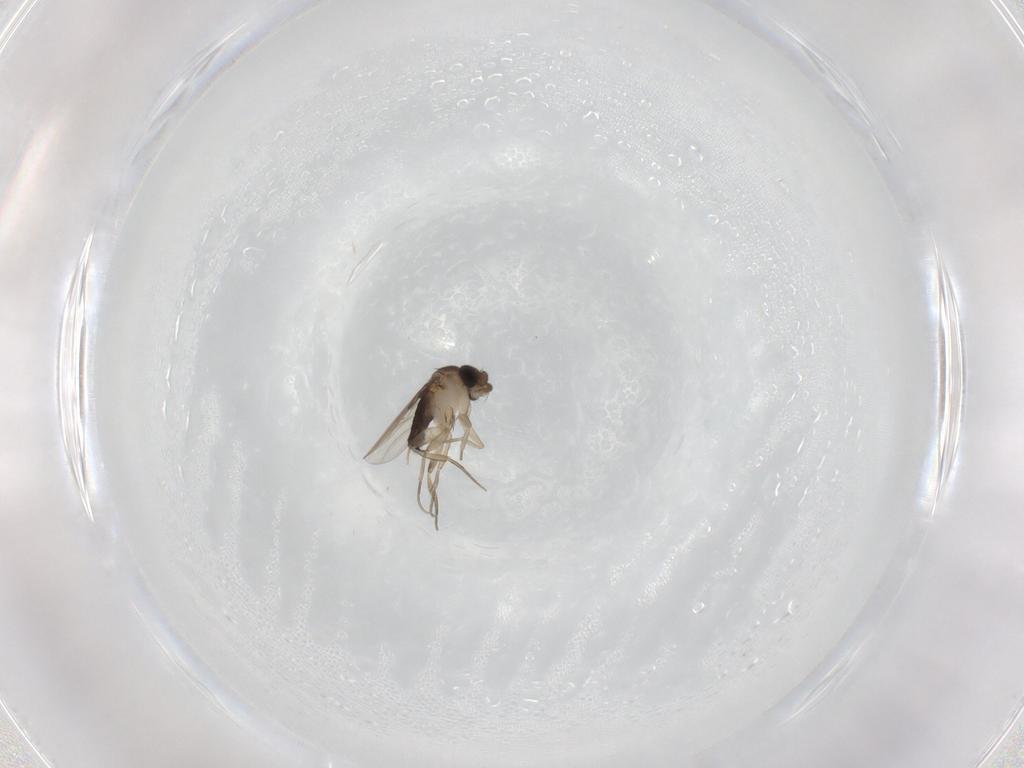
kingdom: Animalia
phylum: Arthropoda
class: Insecta
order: Diptera
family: Phoridae
